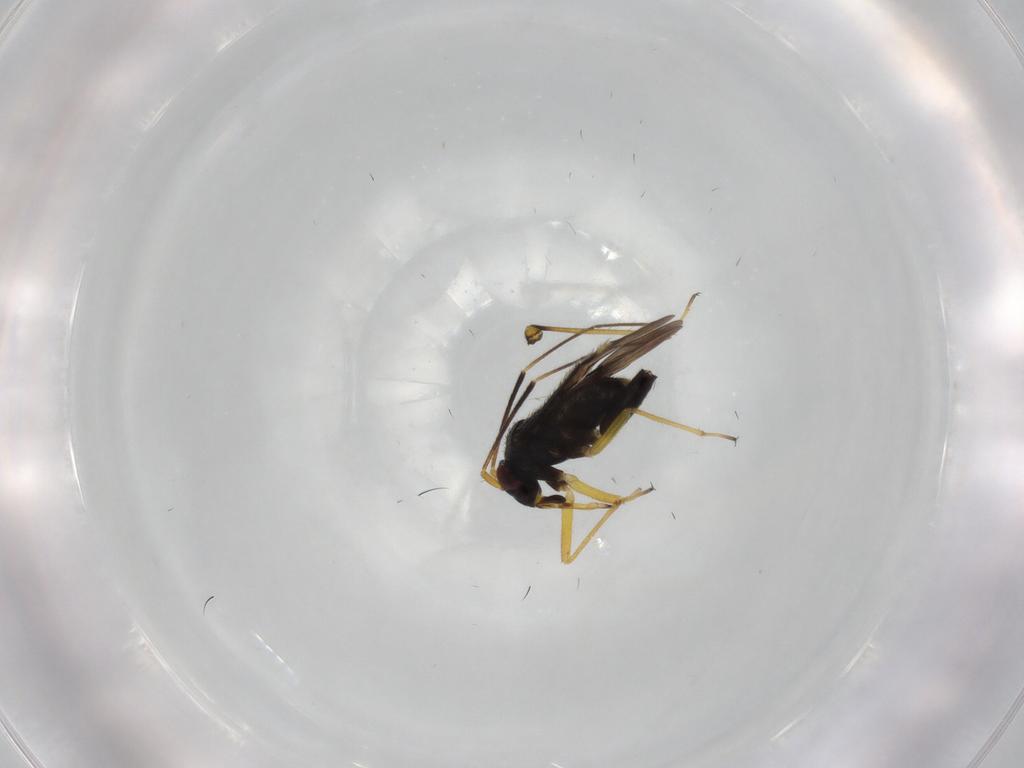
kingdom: Animalia
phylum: Arthropoda
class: Insecta
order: Hemiptera
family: Miridae
